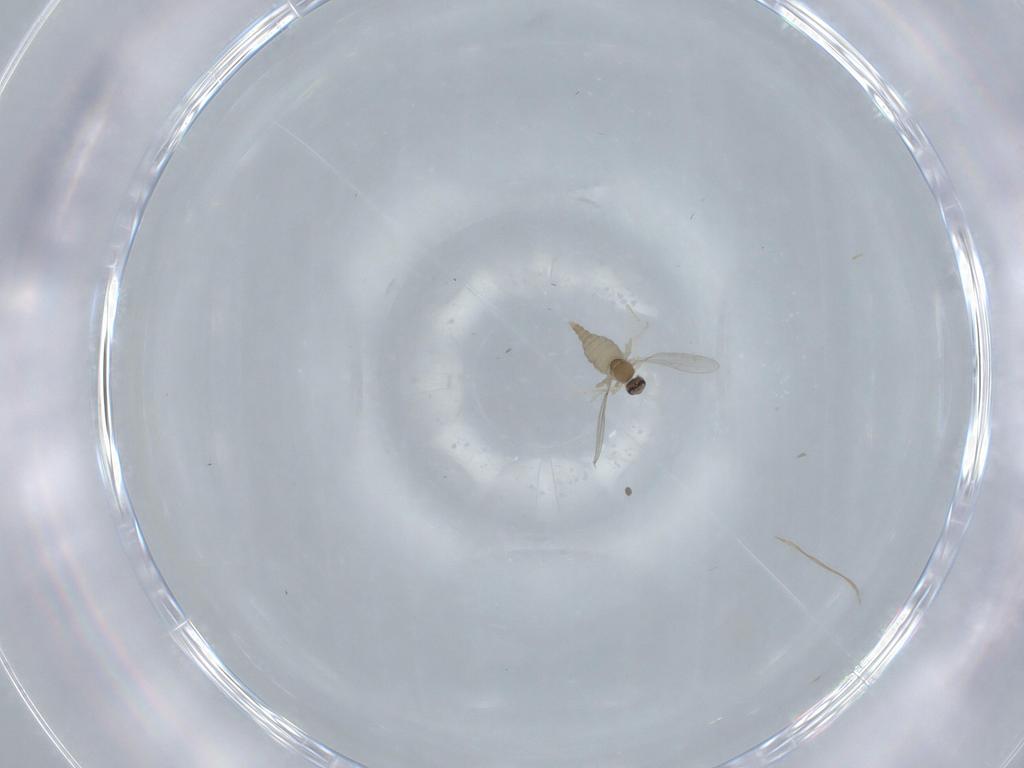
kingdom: Animalia
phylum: Arthropoda
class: Insecta
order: Diptera
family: Cecidomyiidae
